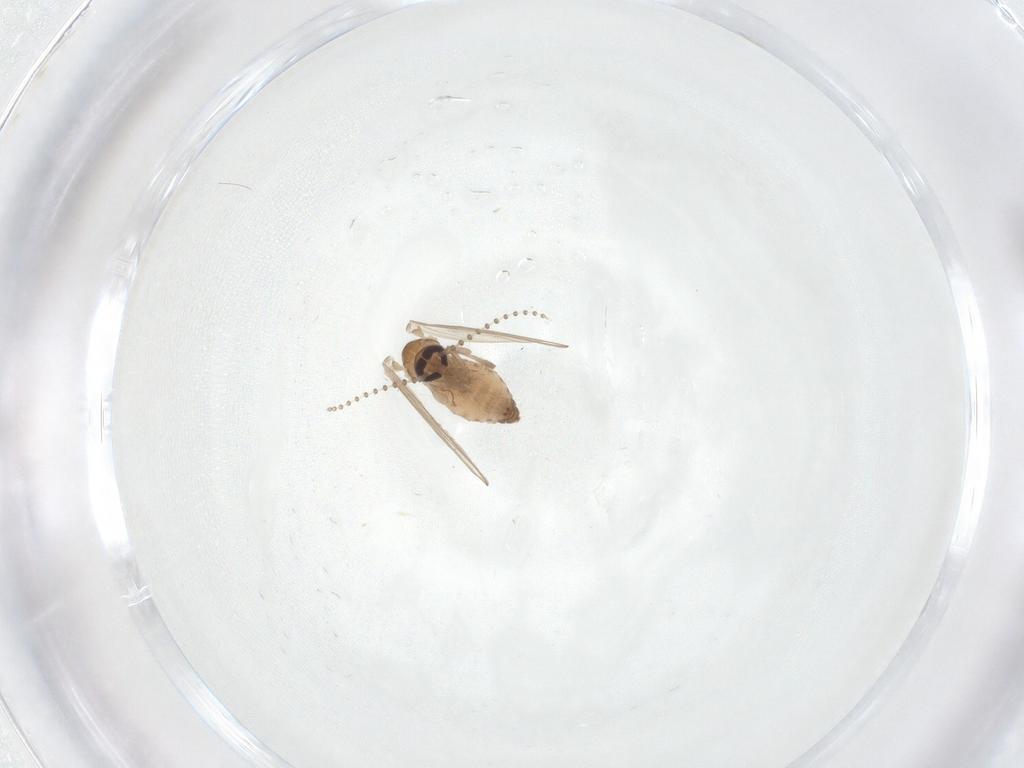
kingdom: Animalia
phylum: Arthropoda
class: Insecta
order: Diptera
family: Psychodidae
